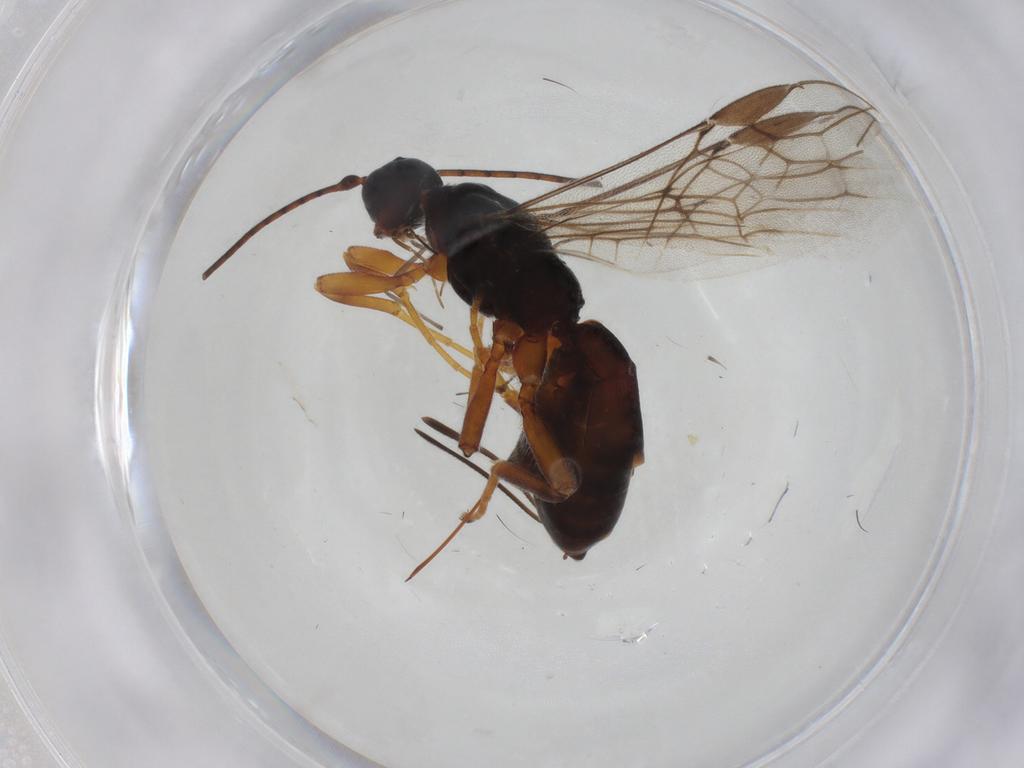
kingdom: Animalia
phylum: Arthropoda
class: Insecta
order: Hymenoptera
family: Braconidae
